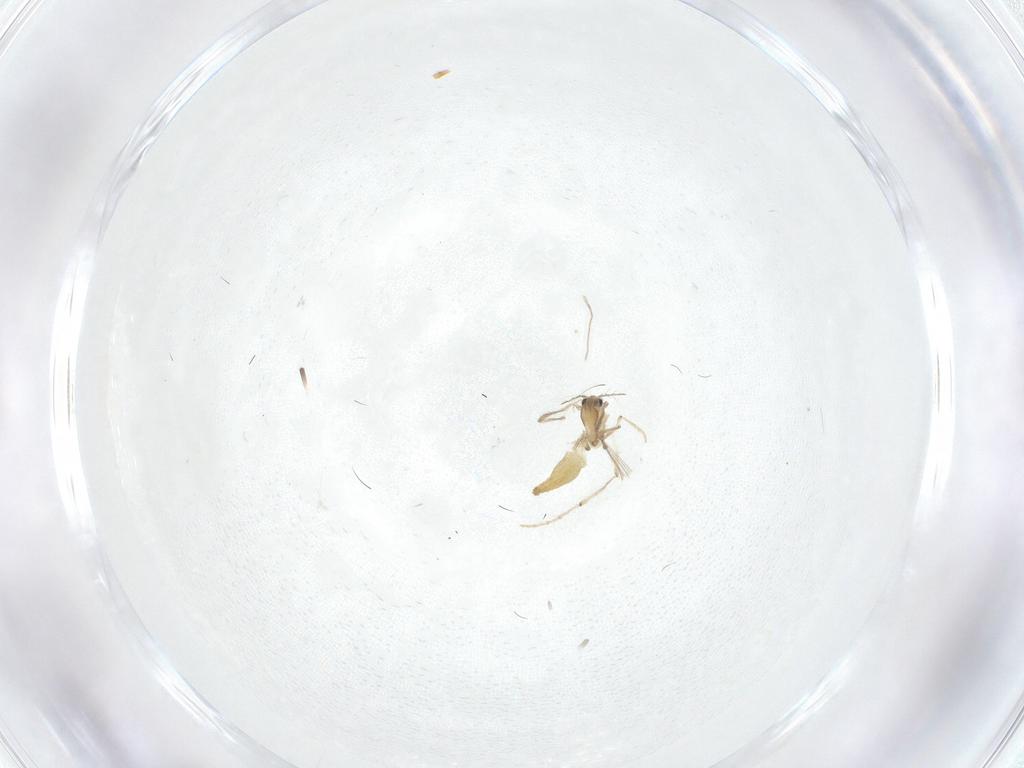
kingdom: Animalia
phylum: Arthropoda
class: Insecta
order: Diptera
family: Chironomidae
